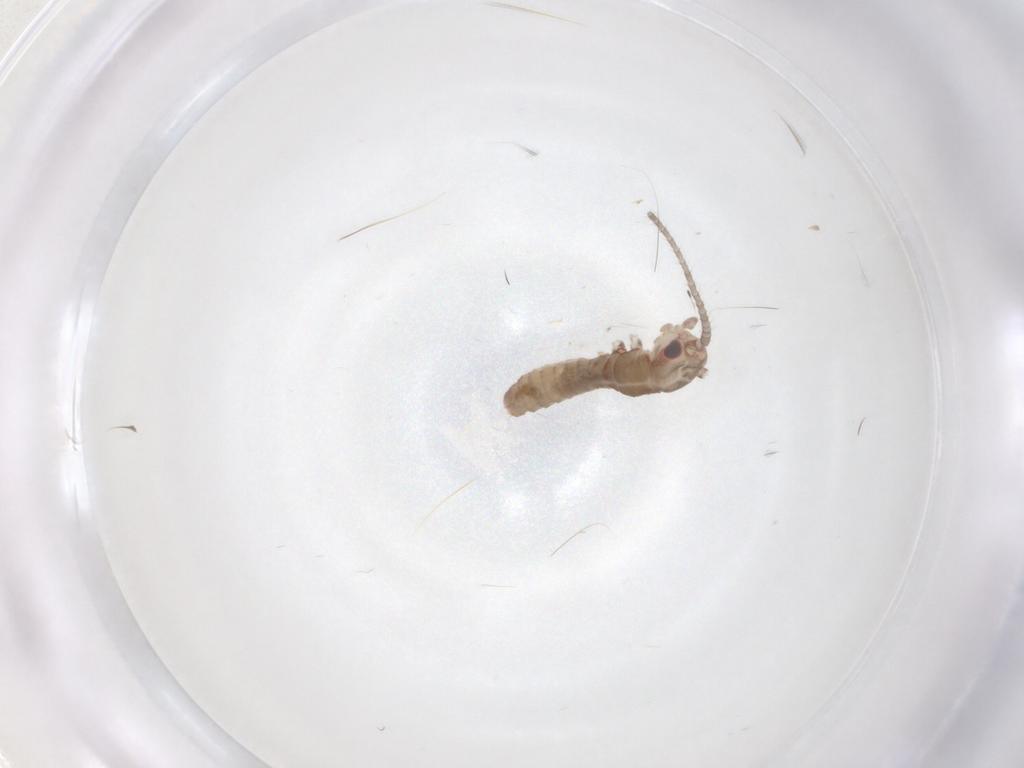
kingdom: Animalia
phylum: Arthropoda
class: Insecta
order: Orthoptera
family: Mogoplistidae
